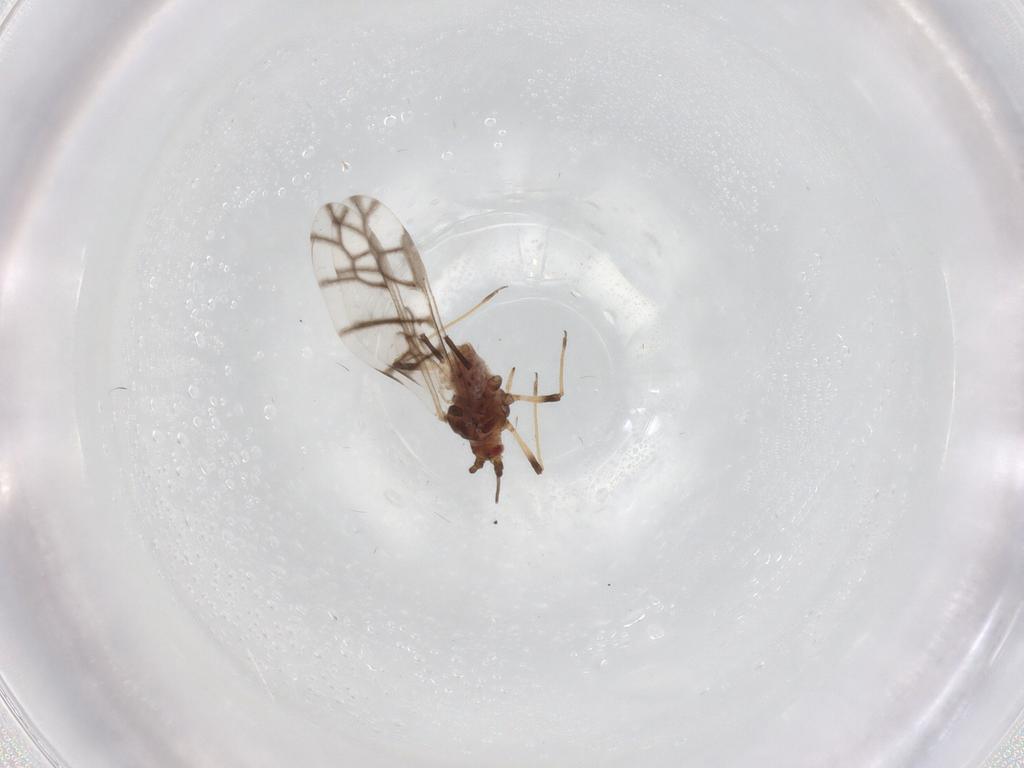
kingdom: Animalia
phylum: Arthropoda
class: Insecta
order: Hemiptera
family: Aphididae
